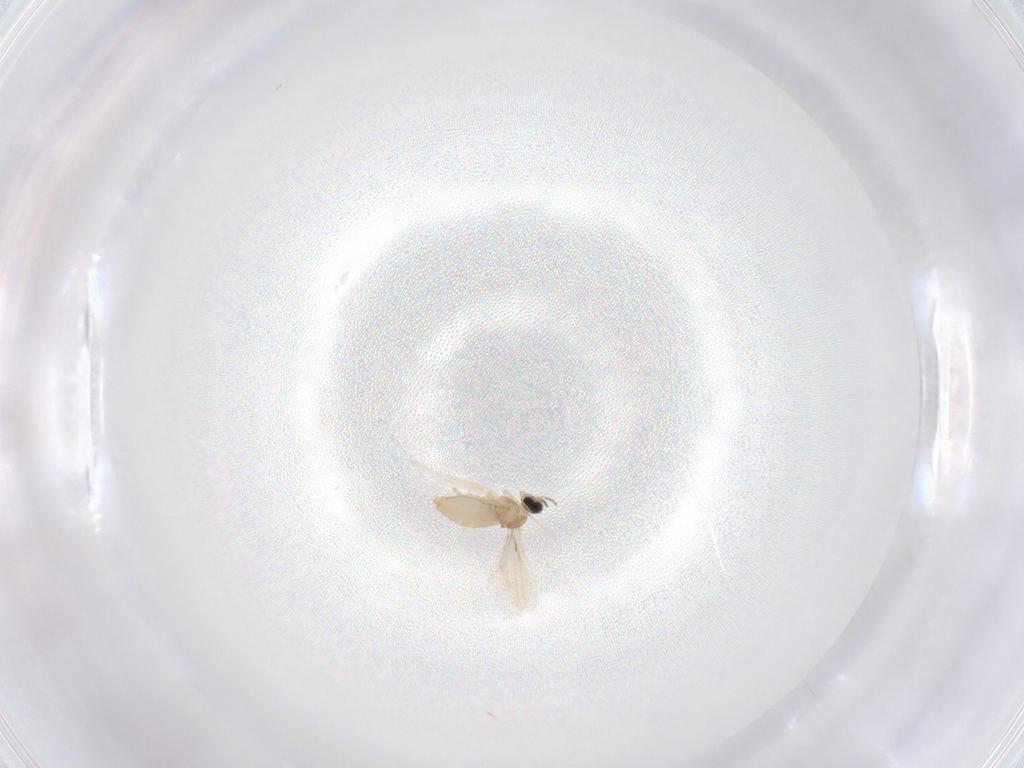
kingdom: Animalia
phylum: Arthropoda
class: Insecta
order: Diptera
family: Cecidomyiidae
